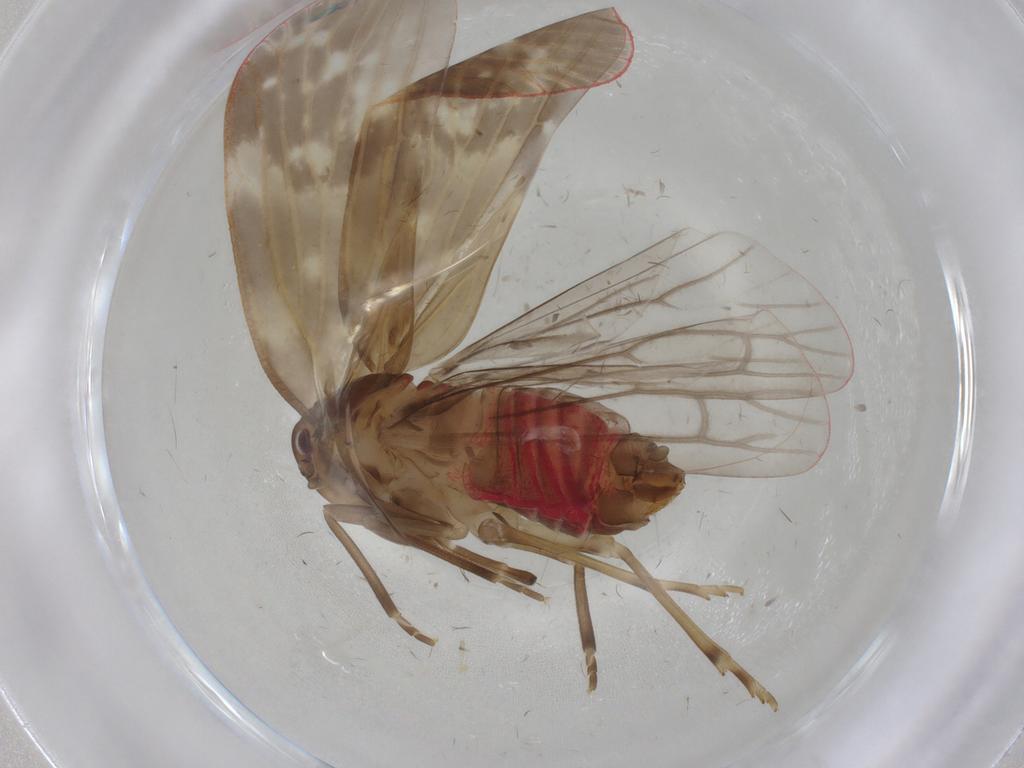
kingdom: Animalia
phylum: Arthropoda
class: Insecta
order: Hemiptera
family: Achilidae
